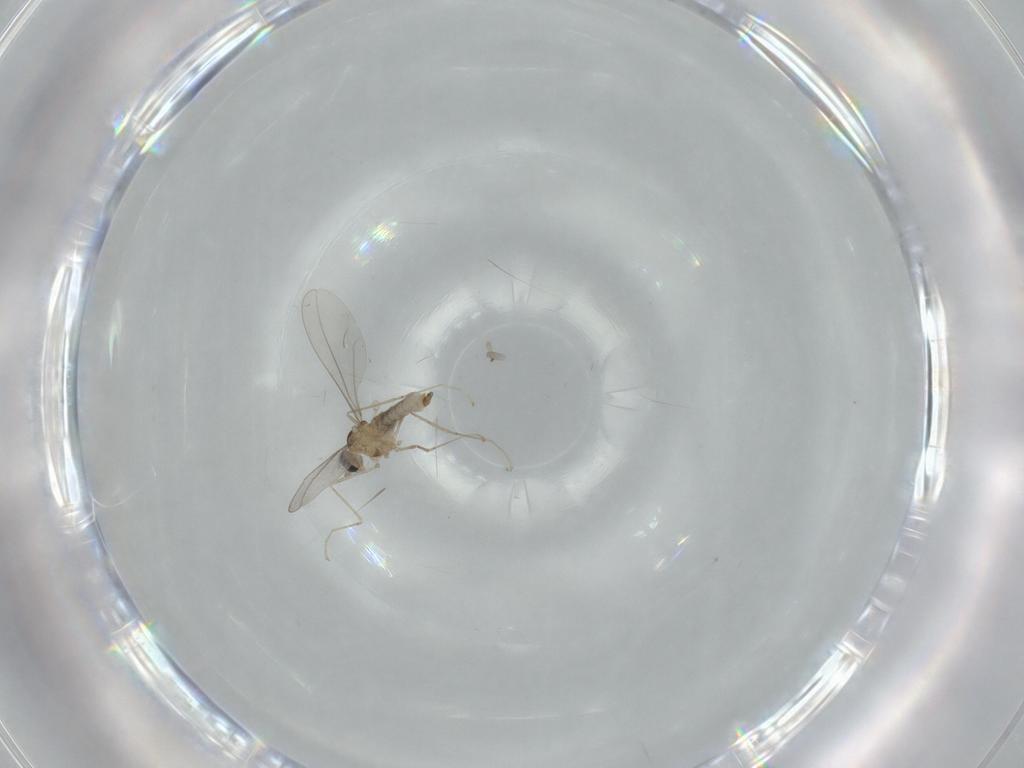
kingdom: Animalia
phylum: Arthropoda
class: Insecta
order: Diptera
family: Cecidomyiidae
